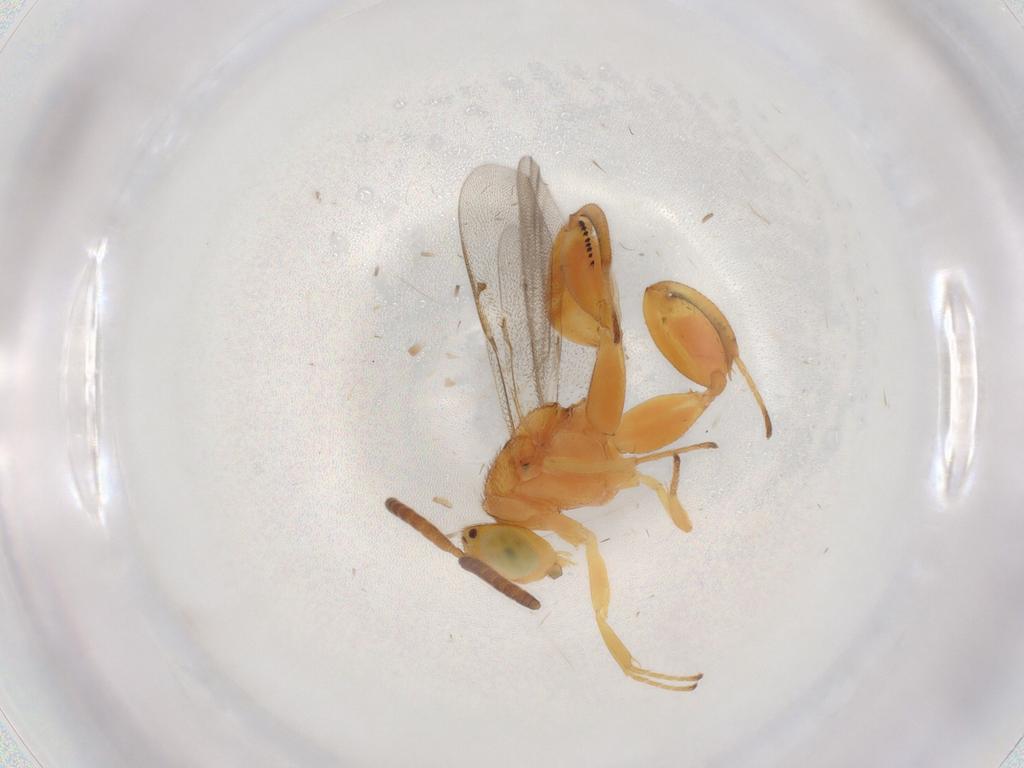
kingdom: Animalia
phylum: Arthropoda
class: Insecta
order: Hymenoptera
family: Chalcididae
